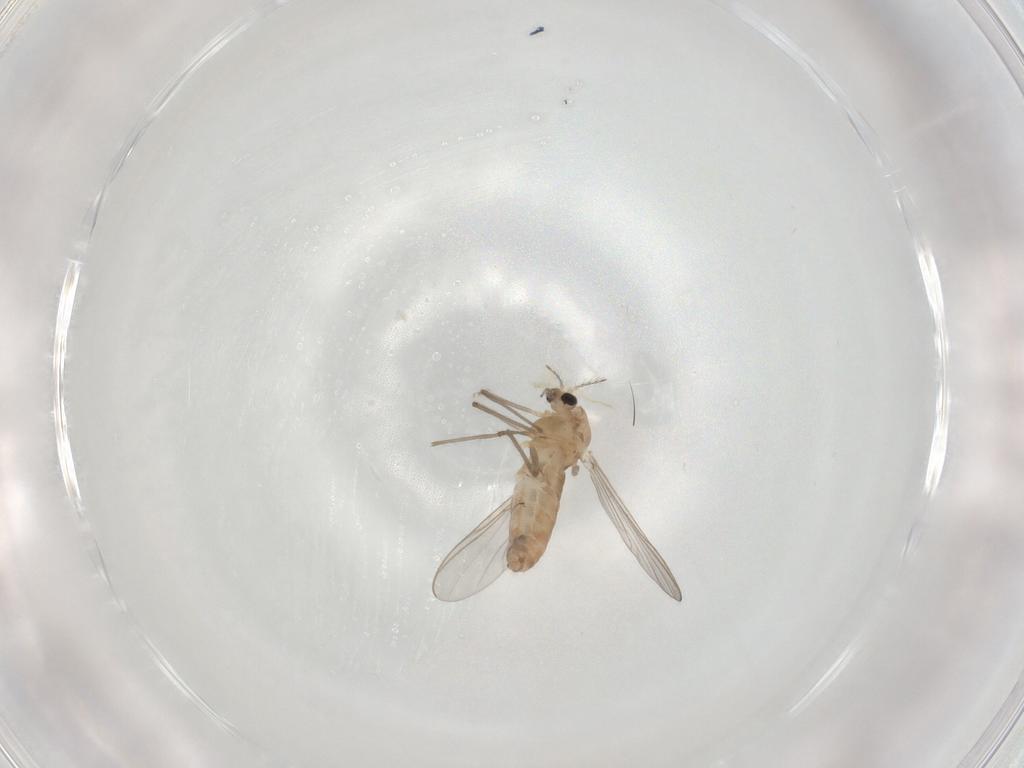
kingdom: Animalia
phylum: Arthropoda
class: Insecta
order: Diptera
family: Chironomidae
